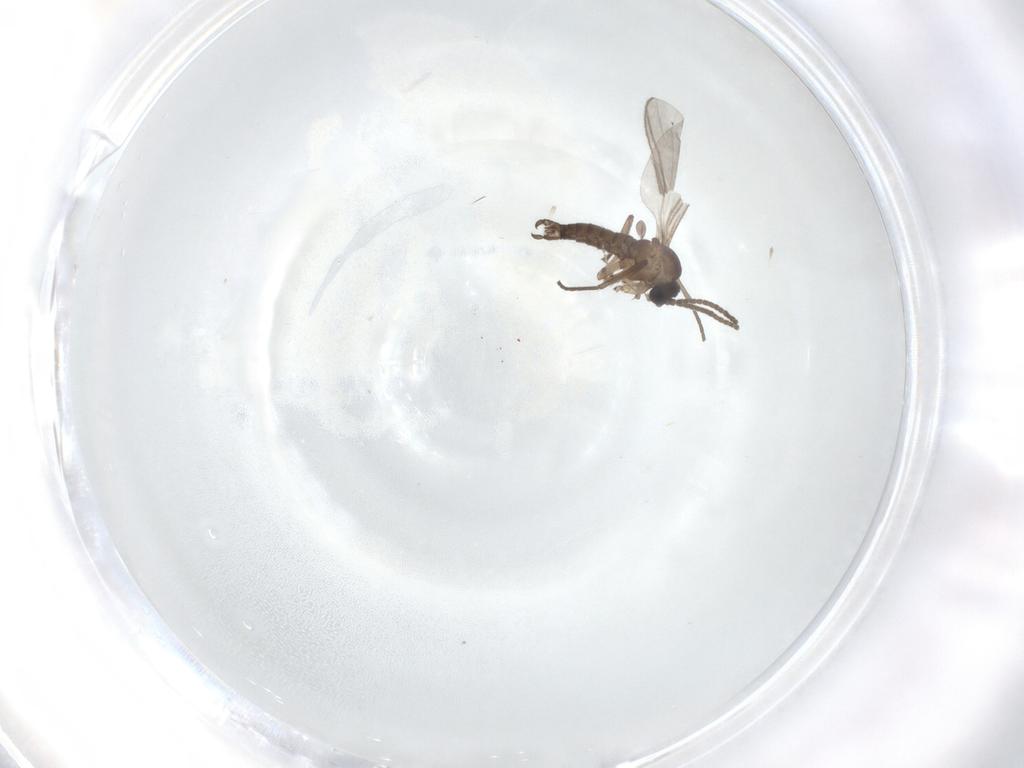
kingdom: Animalia
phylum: Arthropoda
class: Insecta
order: Diptera
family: Sciaridae
